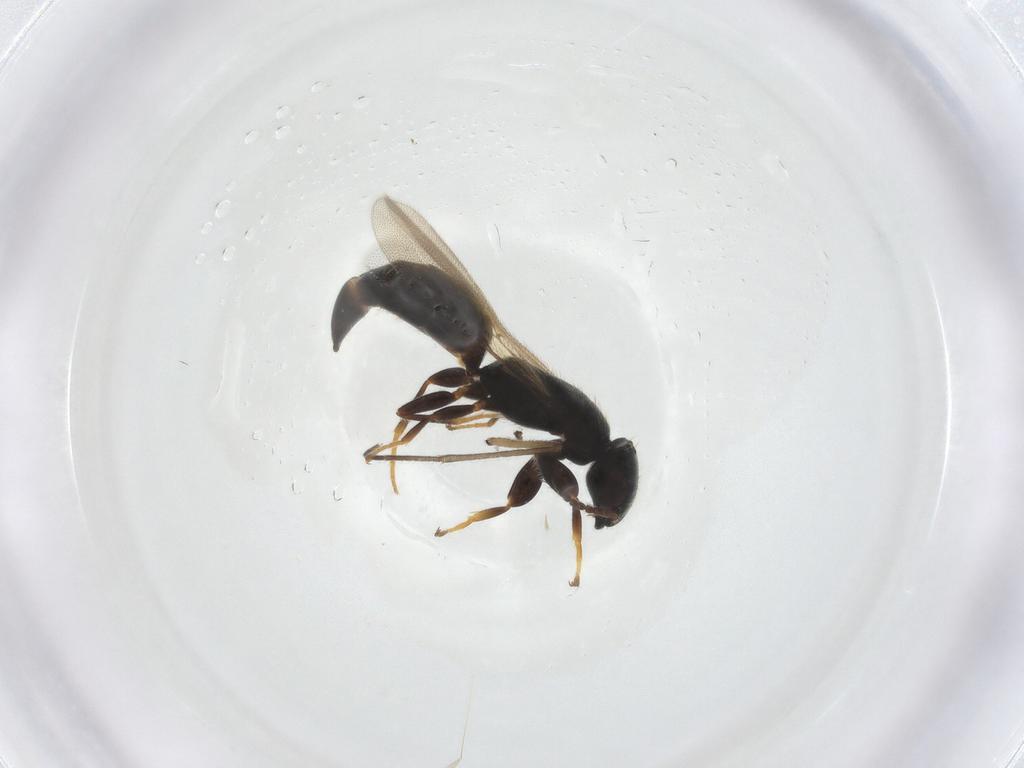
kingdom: Animalia
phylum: Arthropoda
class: Insecta
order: Hymenoptera
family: Bethylidae
